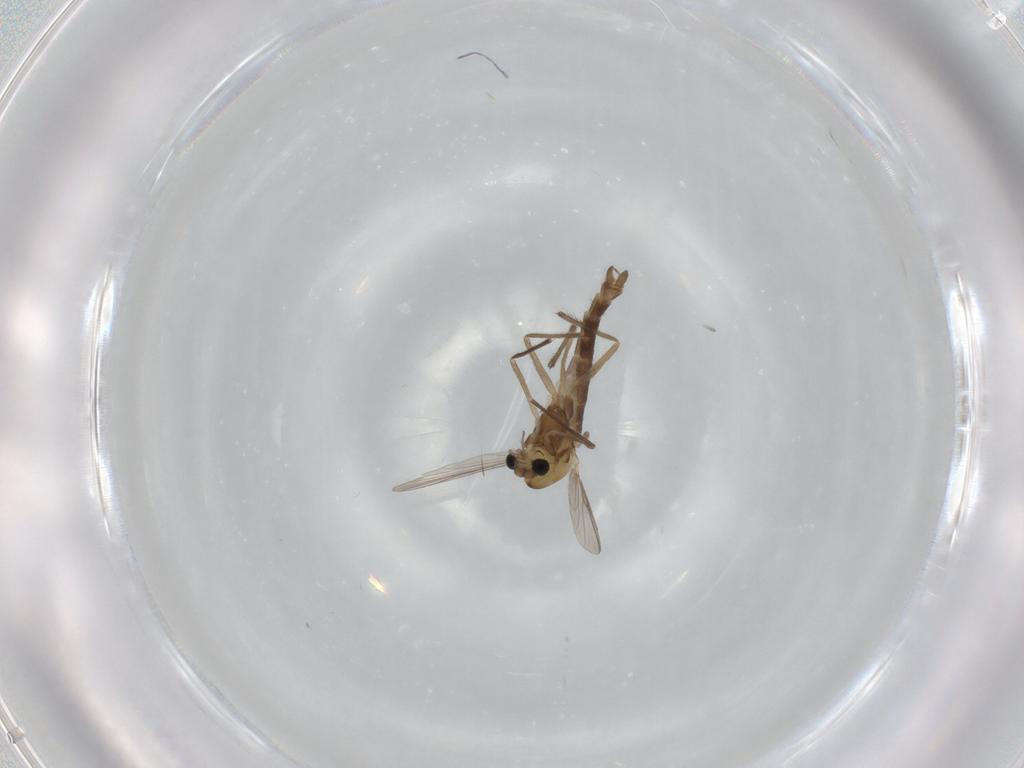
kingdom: Animalia
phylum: Arthropoda
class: Insecta
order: Diptera
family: Chironomidae
